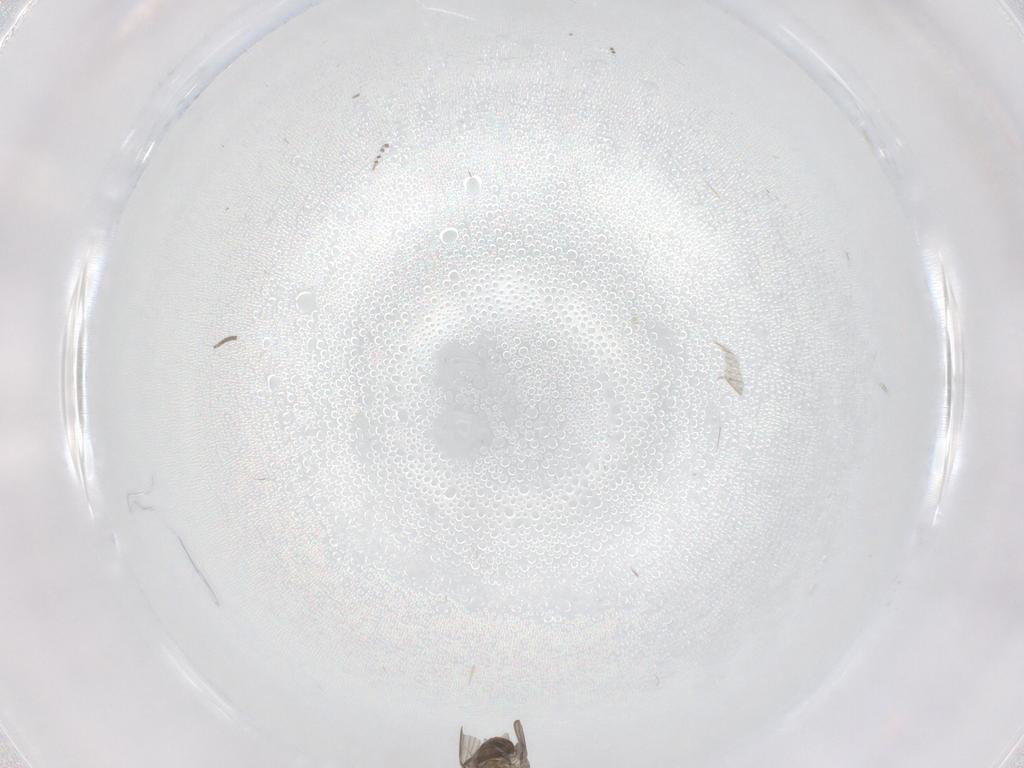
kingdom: Animalia
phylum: Arthropoda
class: Insecta
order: Diptera
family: Psychodidae
